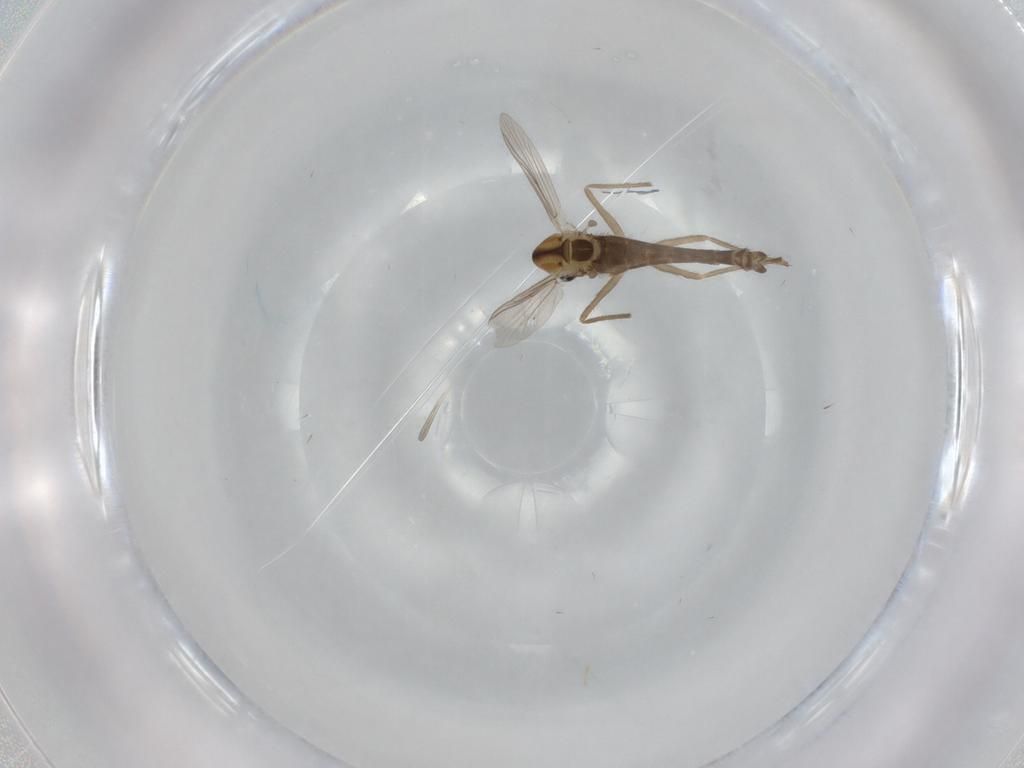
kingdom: Animalia
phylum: Arthropoda
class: Insecta
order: Diptera
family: Chironomidae
